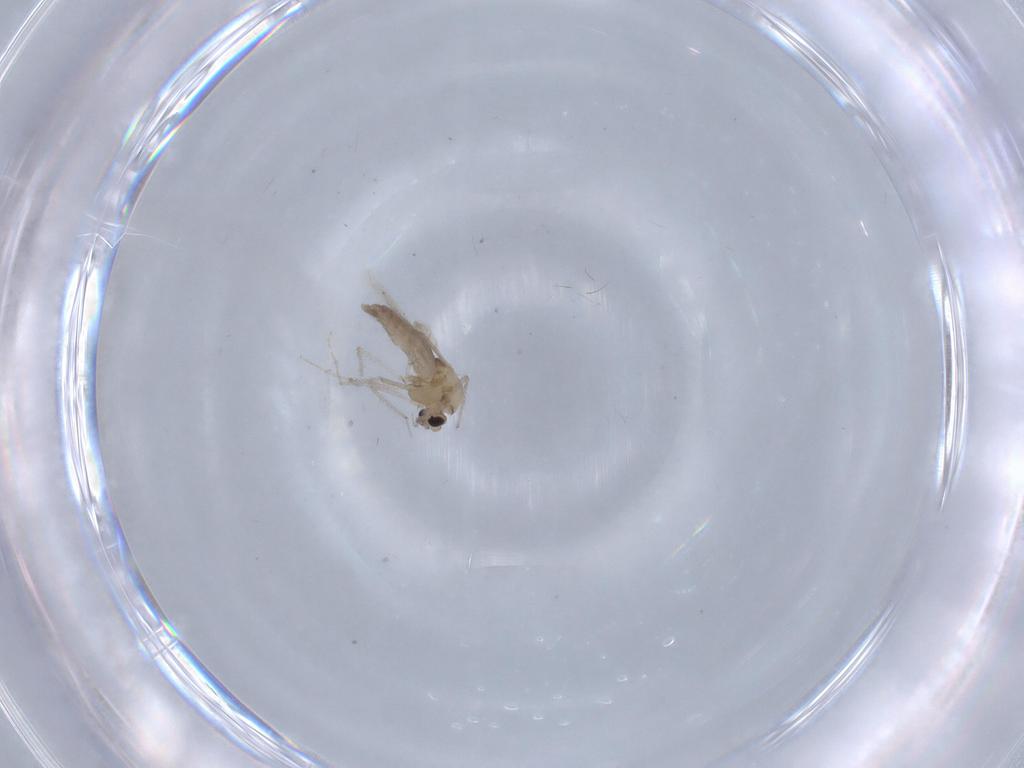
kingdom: Animalia
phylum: Arthropoda
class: Insecta
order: Diptera
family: Chironomidae
